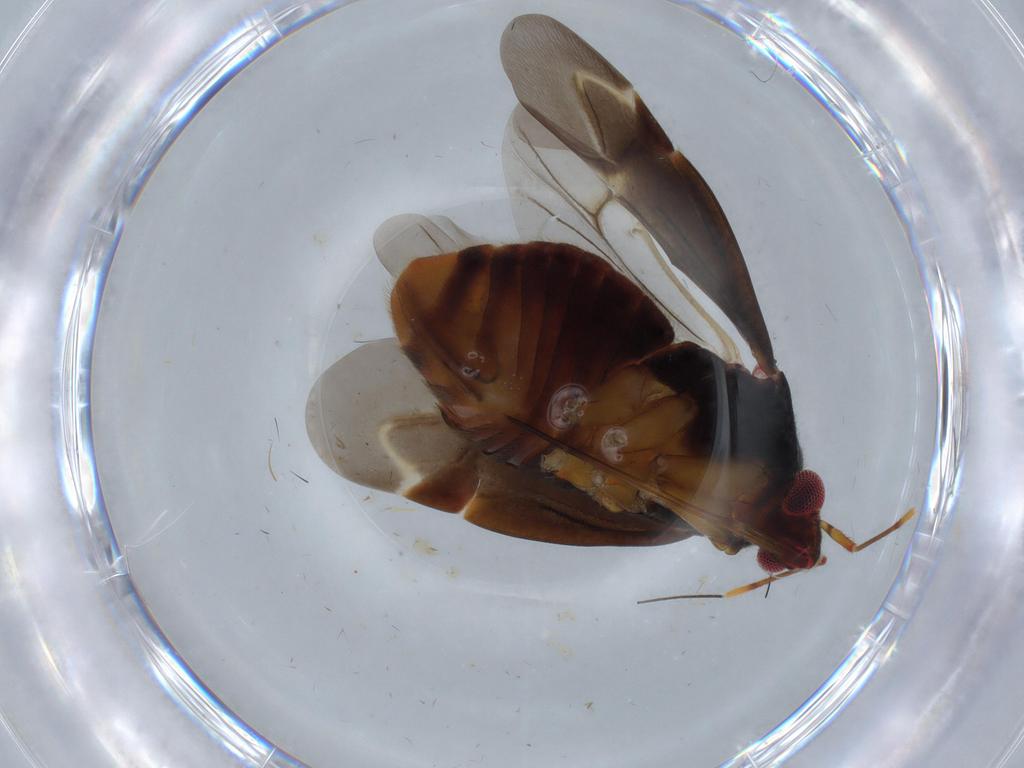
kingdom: Animalia
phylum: Arthropoda
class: Insecta
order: Hemiptera
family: Cicadellidae
